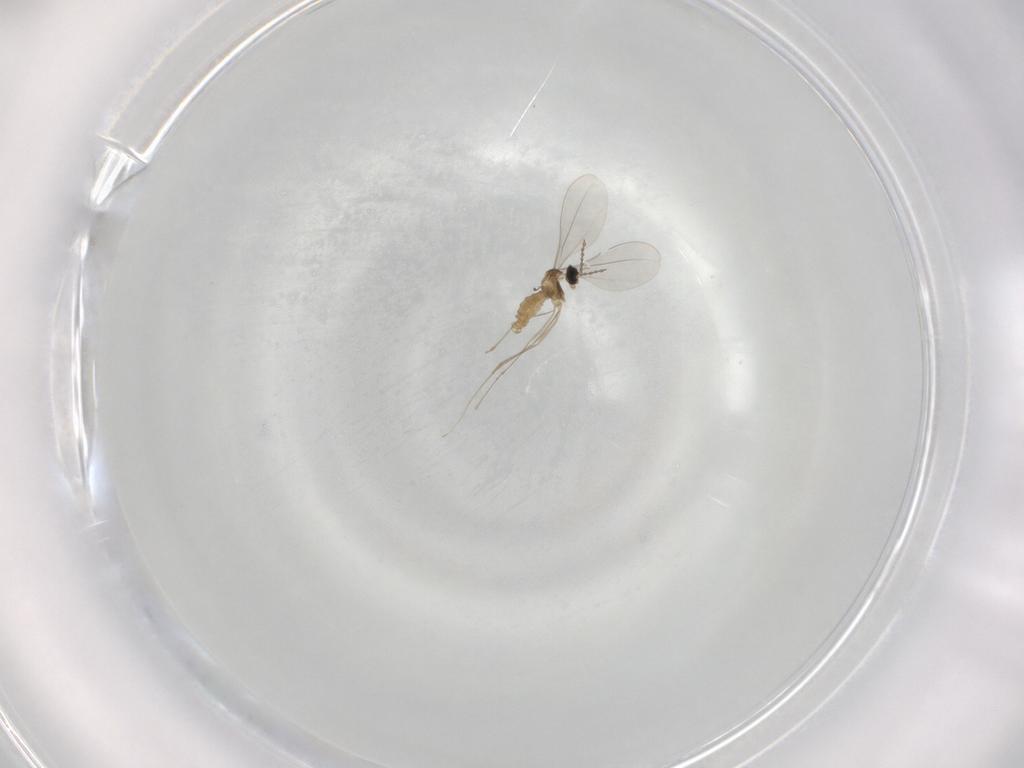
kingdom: Animalia
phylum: Arthropoda
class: Insecta
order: Diptera
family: Cecidomyiidae
